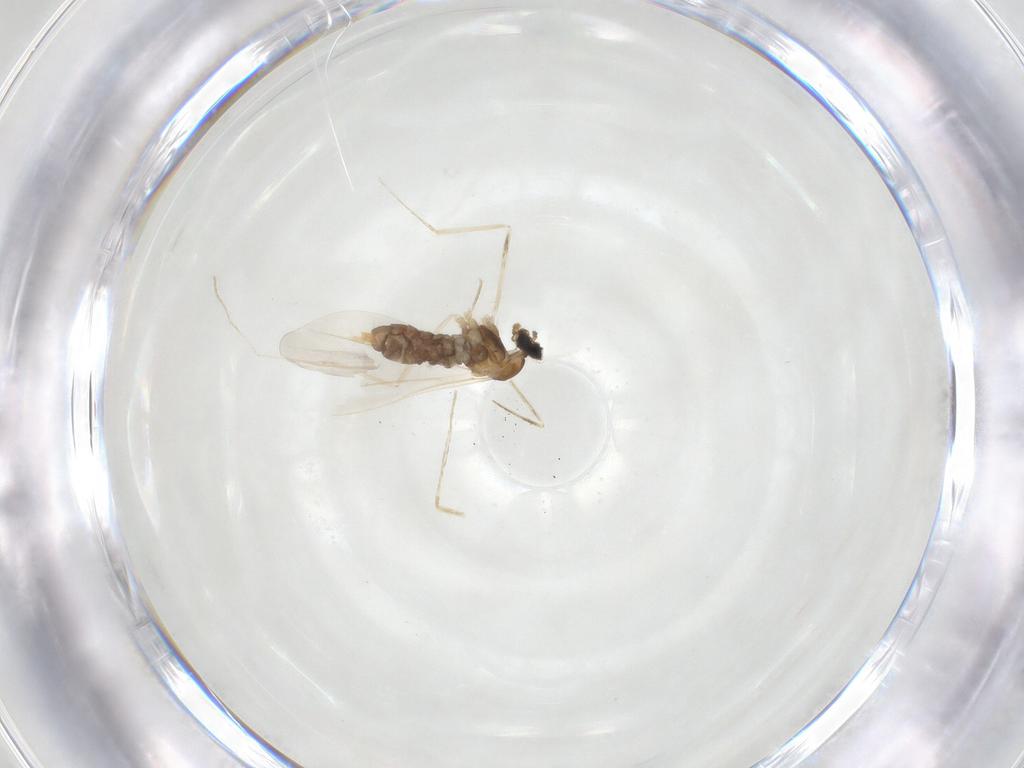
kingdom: Animalia
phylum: Arthropoda
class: Insecta
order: Diptera
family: Cecidomyiidae
